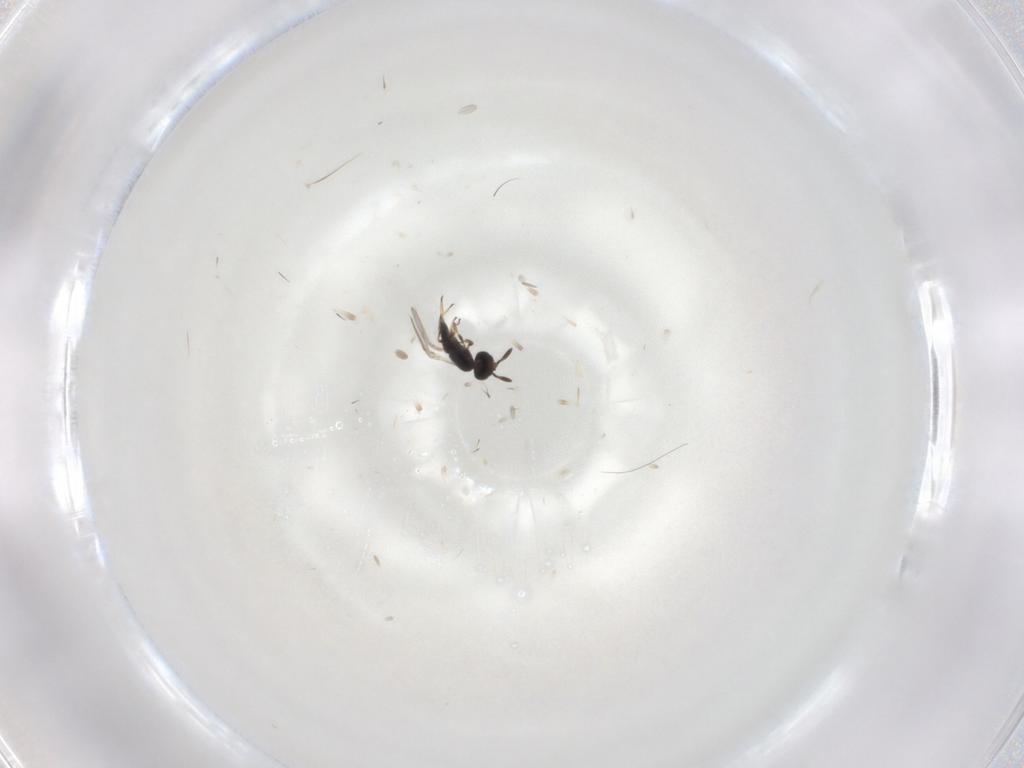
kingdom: Animalia
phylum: Arthropoda
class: Insecta
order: Hymenoptera
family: Scelionidae
